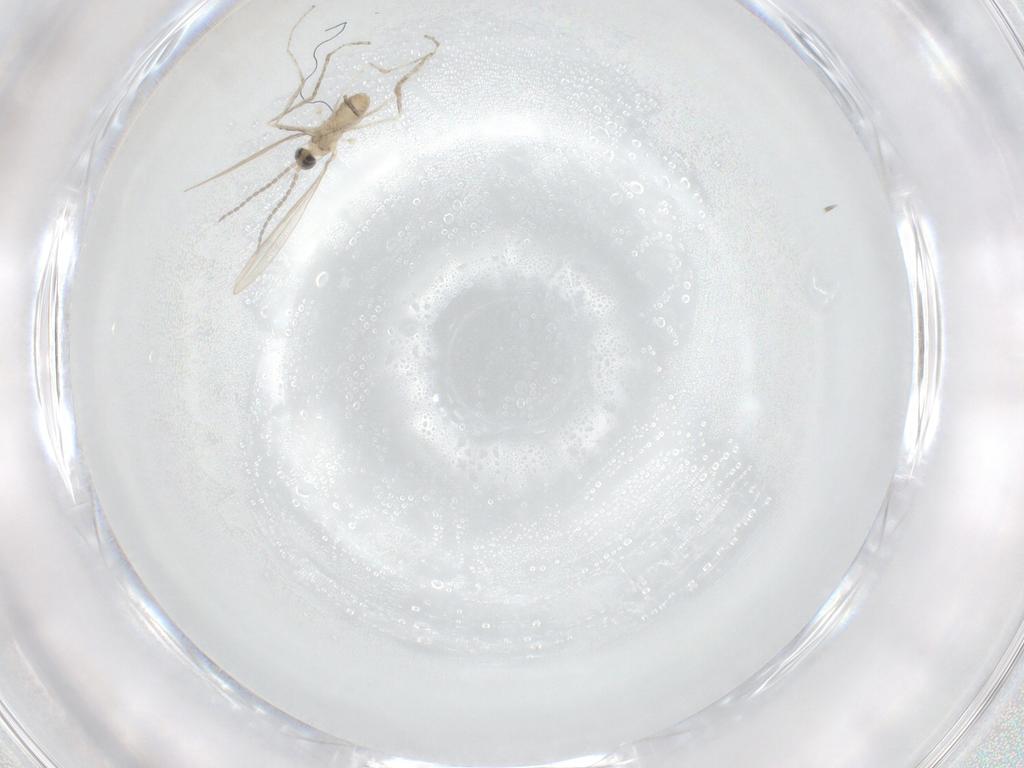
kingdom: Animalia
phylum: Arthropoda
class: Insecta
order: Diptera
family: Cecidomyiidae
